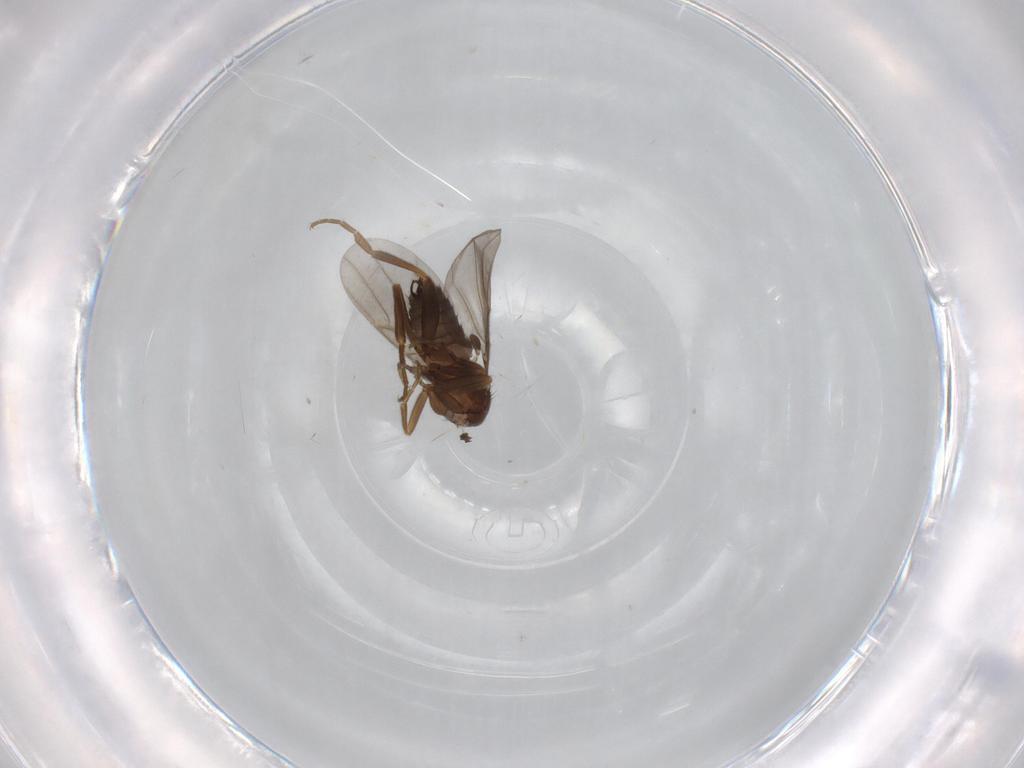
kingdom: Animalia
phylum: Arthropoda
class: Insecta
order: Diptera
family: Phoridae
